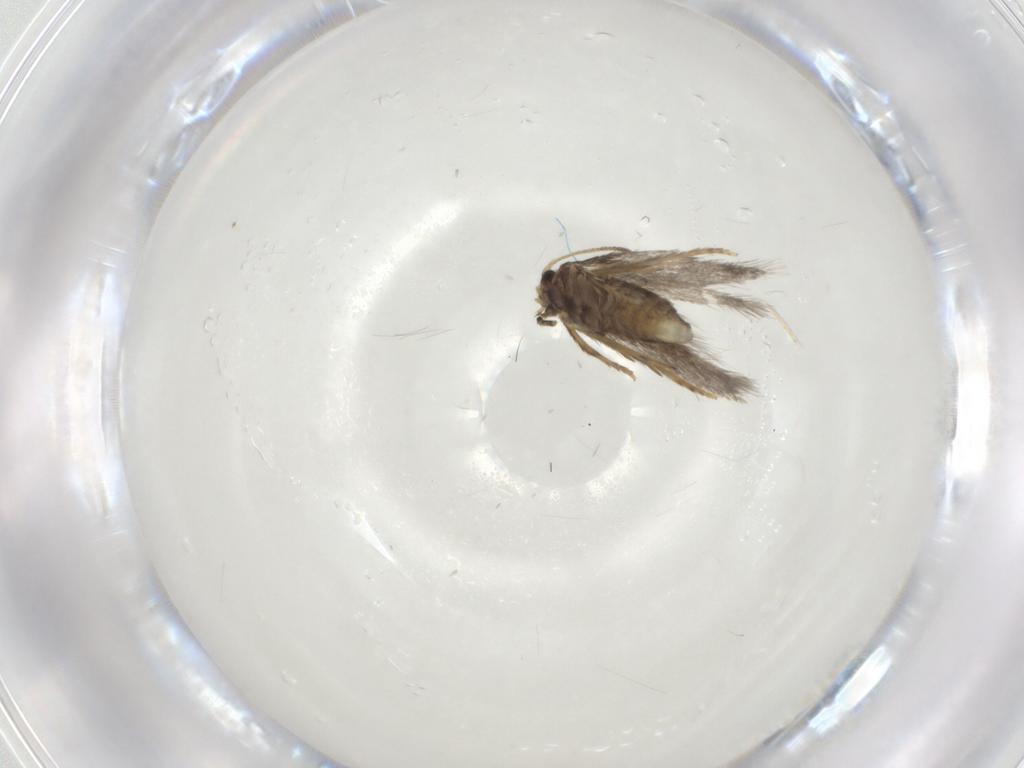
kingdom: Animalia
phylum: Arthropoda
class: Insecta
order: Lepidoptera
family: Nepticulidae
